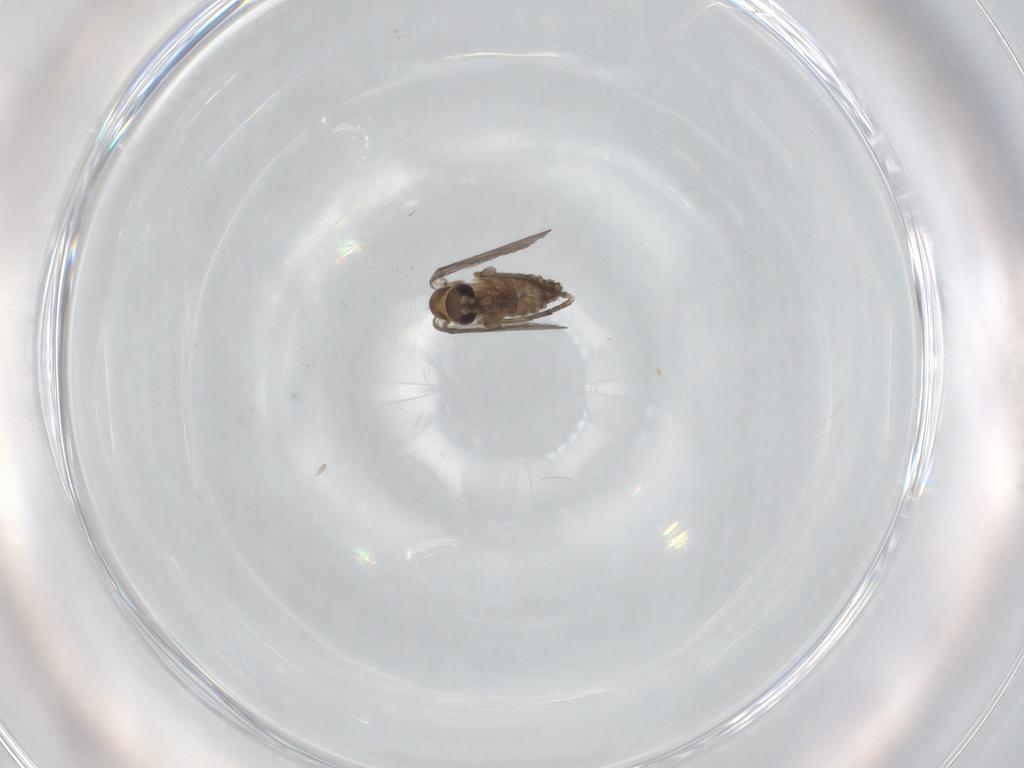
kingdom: Animalia
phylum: Arthropoda
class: Insecta
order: Diptera
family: Psychodidae
